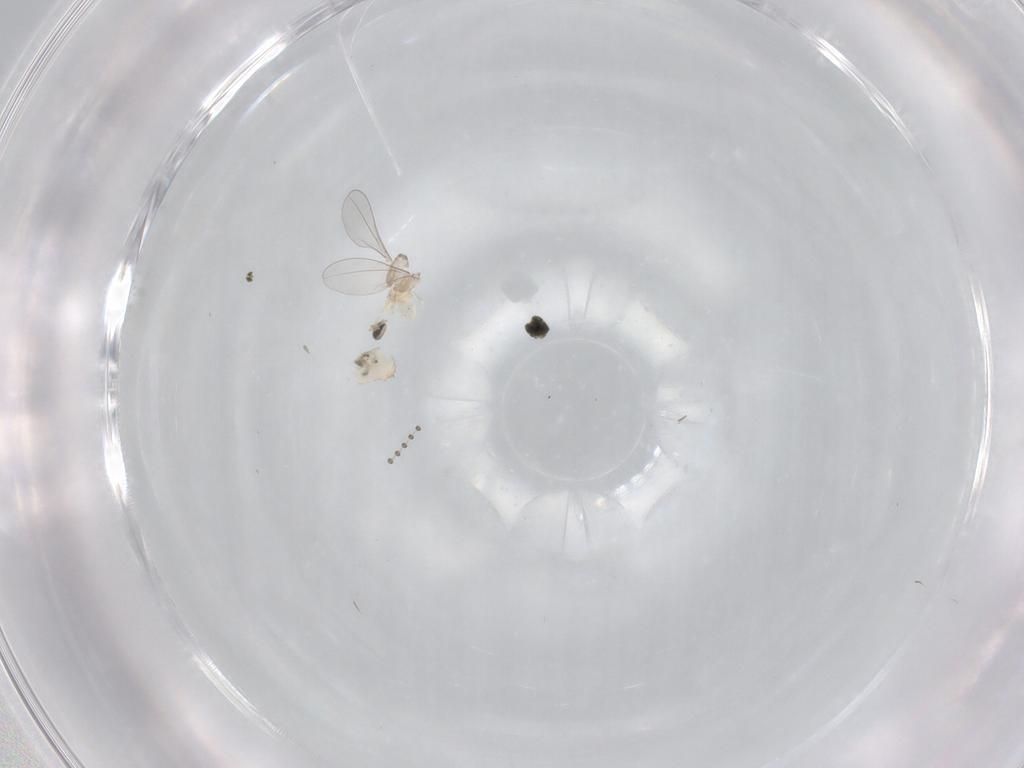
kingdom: Animalia
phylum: Arthropoda
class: Insecta
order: Diptera
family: Cecidomyiidae
